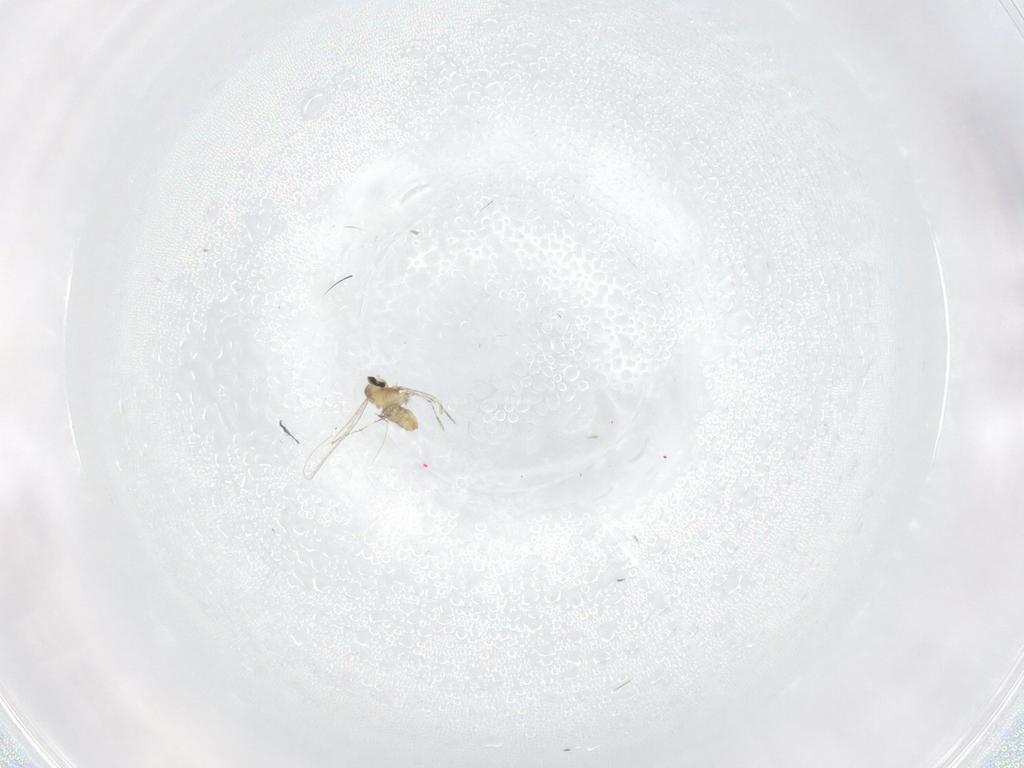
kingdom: Animalia
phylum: Arthropoda
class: Insecta
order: Diptera
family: Cecidomyiidae
